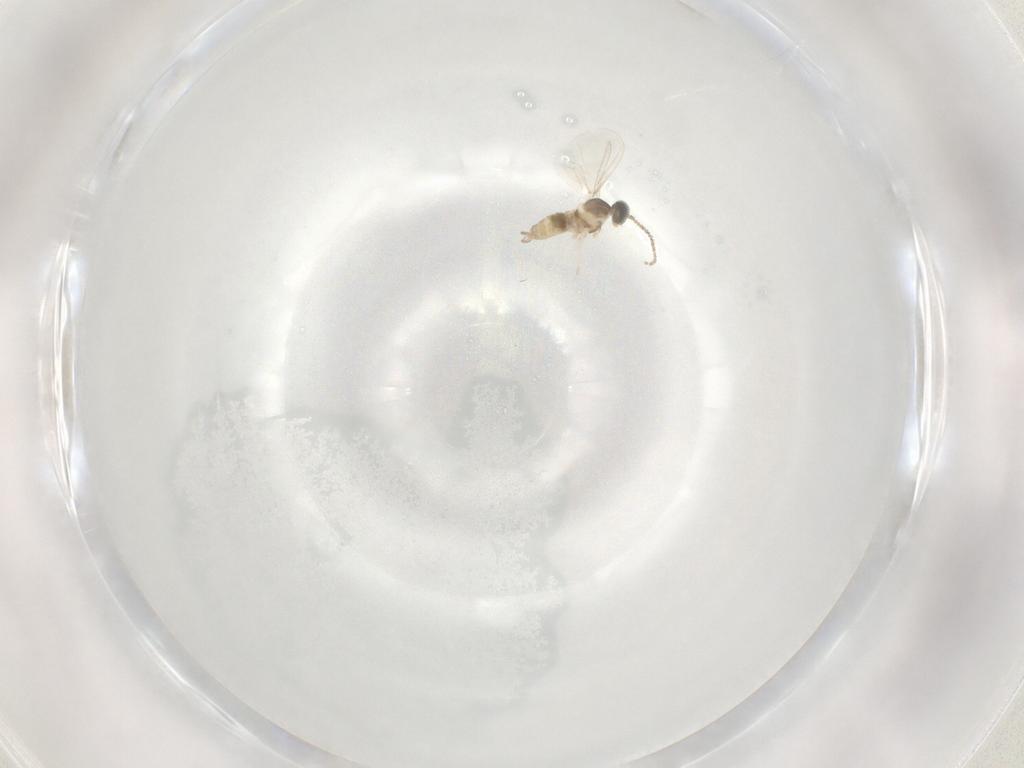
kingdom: Animalia
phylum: Arthropoda
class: Insecta
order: Diptera
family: Cecidomyiidae
